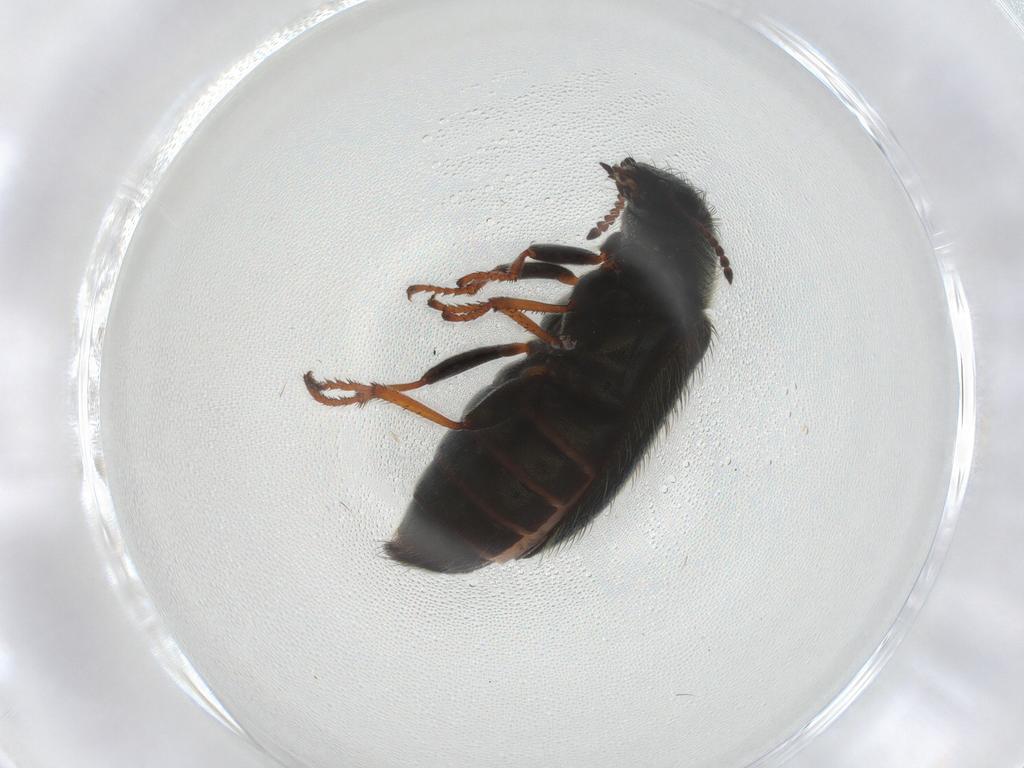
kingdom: Animalia
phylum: Arthropoda
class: Insecta
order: Coleoptera
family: Melyridae
